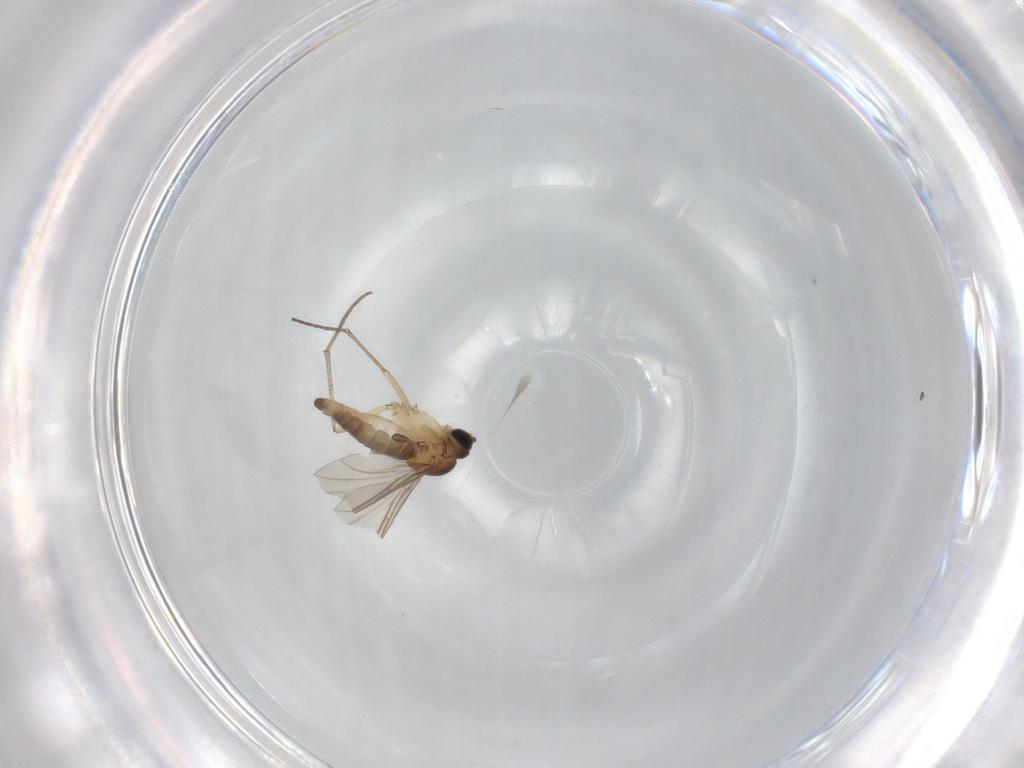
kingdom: Animalia
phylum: Arthropoda
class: Insecta
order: Diptera
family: Sciaridae
